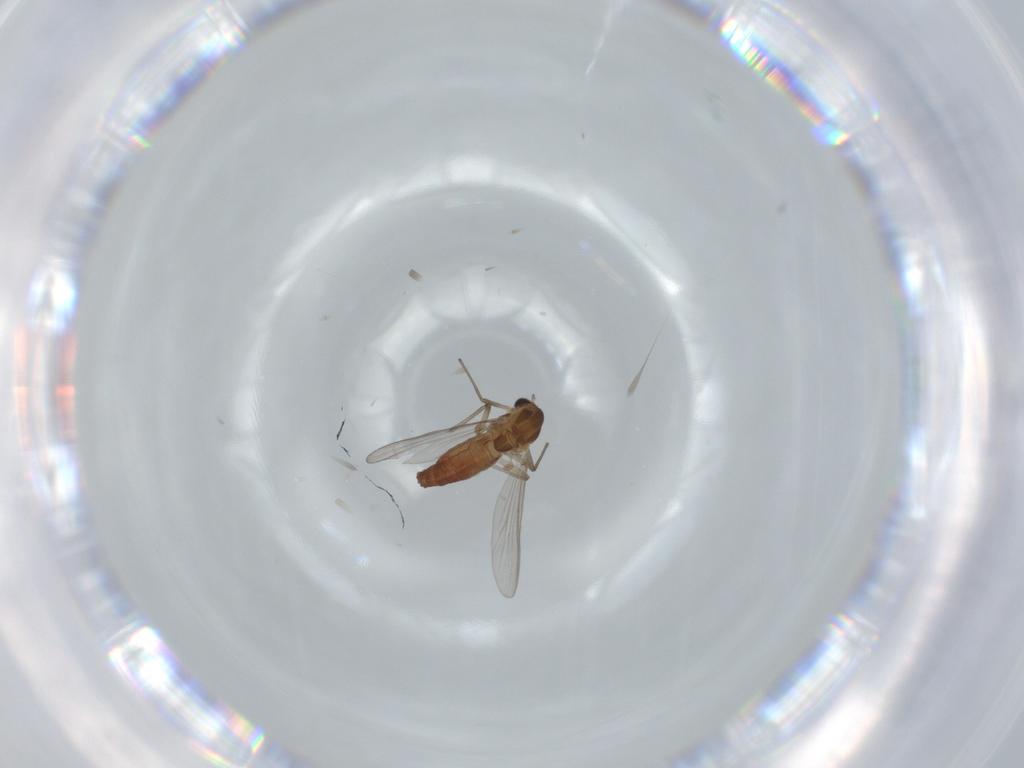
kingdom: Animalia
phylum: Arthropoda
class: Insecta
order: Diptera
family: Chironomidae
